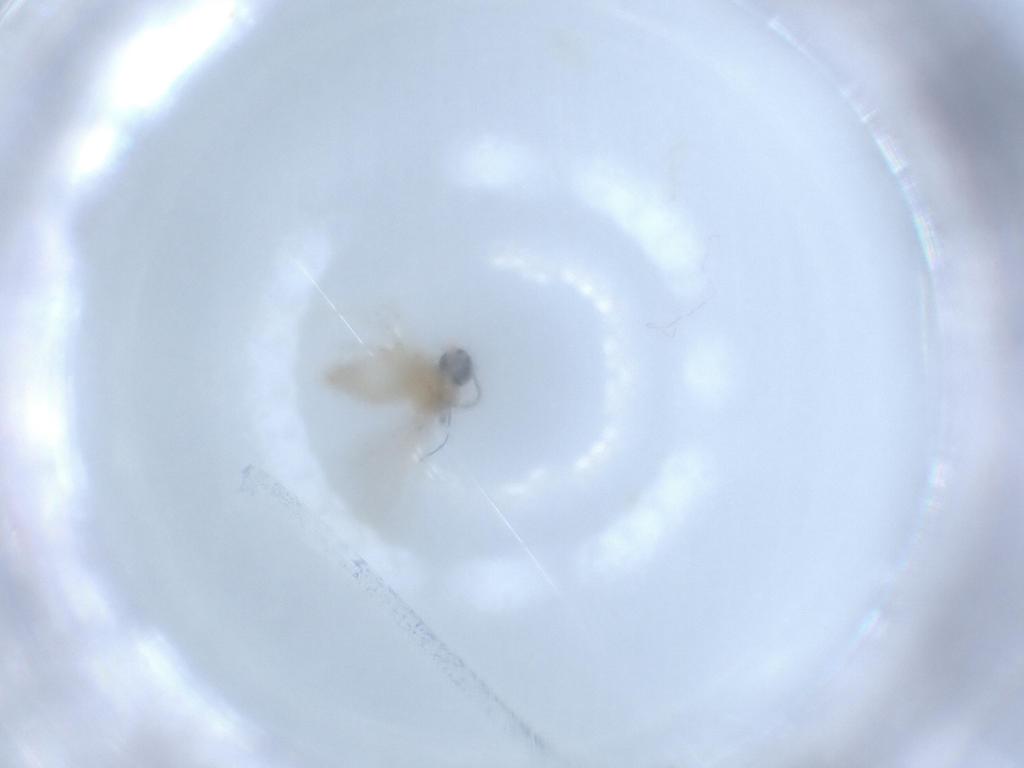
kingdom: Animalia
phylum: Arthropoda
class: Insecta
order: Diptera
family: Cecidomyiidae
